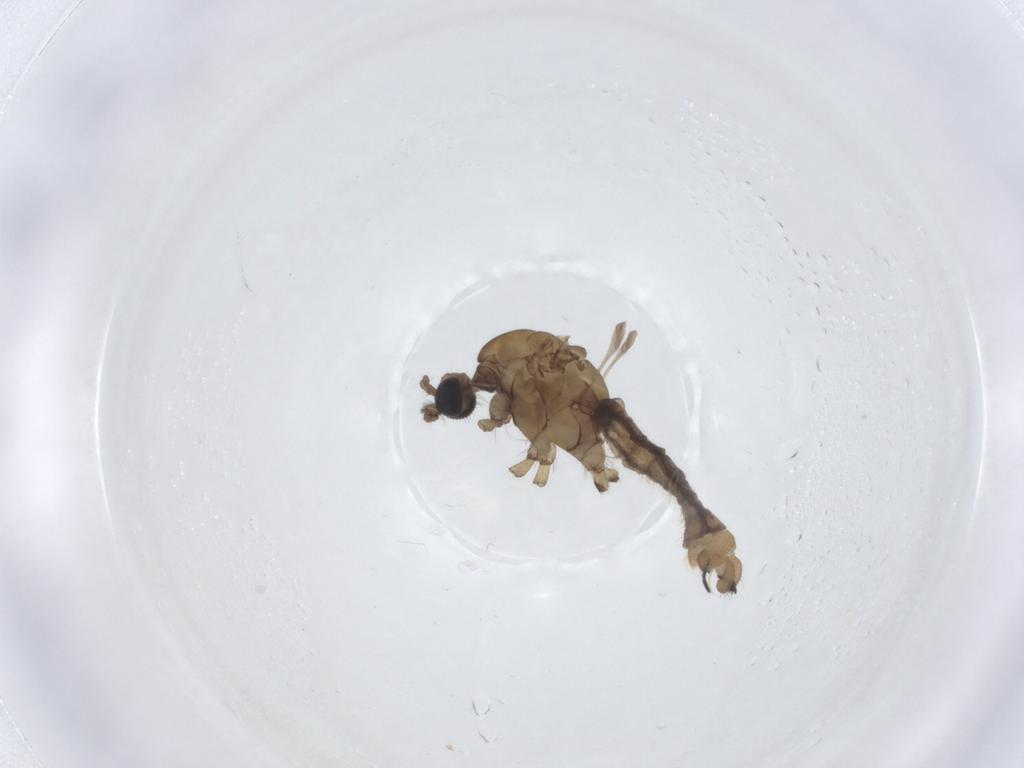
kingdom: Animalia
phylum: Arthropoda
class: Insecta
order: Diptera
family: Limoniidae
